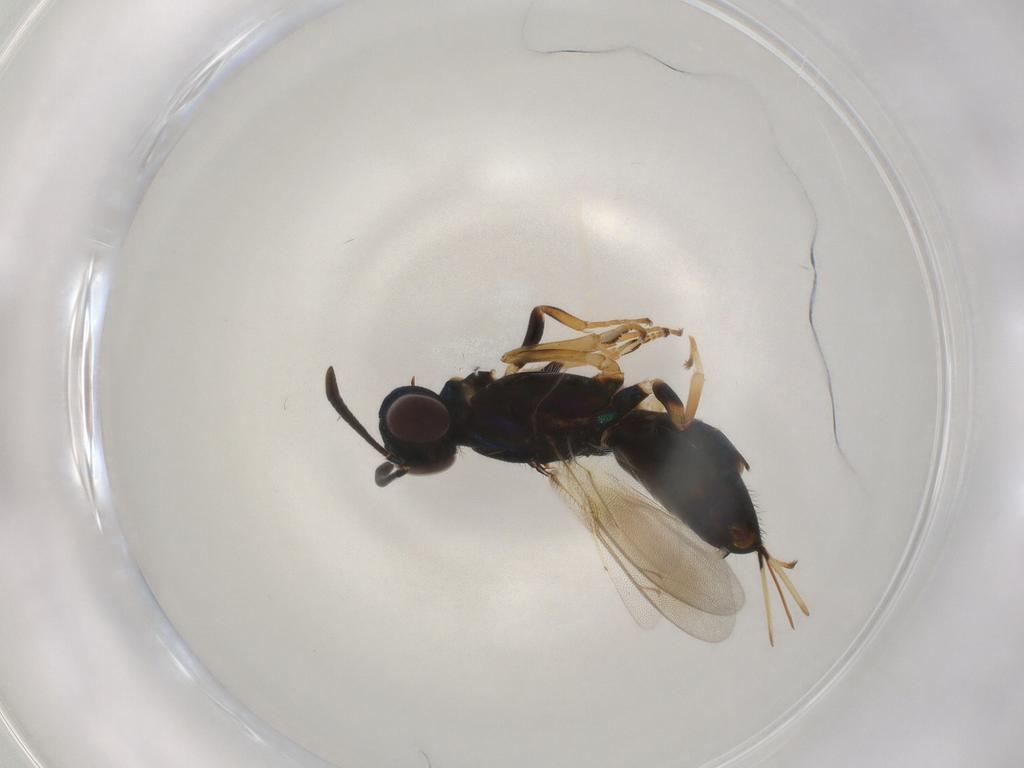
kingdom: Animalia
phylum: Arthropoda
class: Insecta
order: Hymenoptera
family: Eupelmidae
